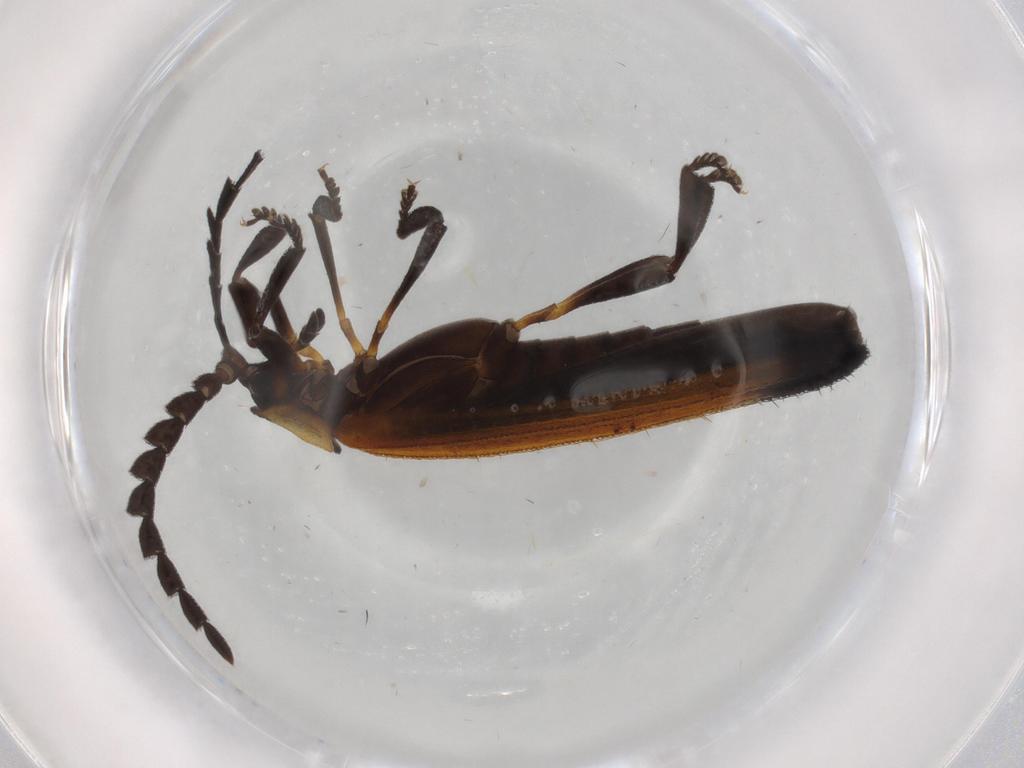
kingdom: Animalia
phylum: Arthropoda
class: Insecta
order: Coleoptera
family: Lycidae
